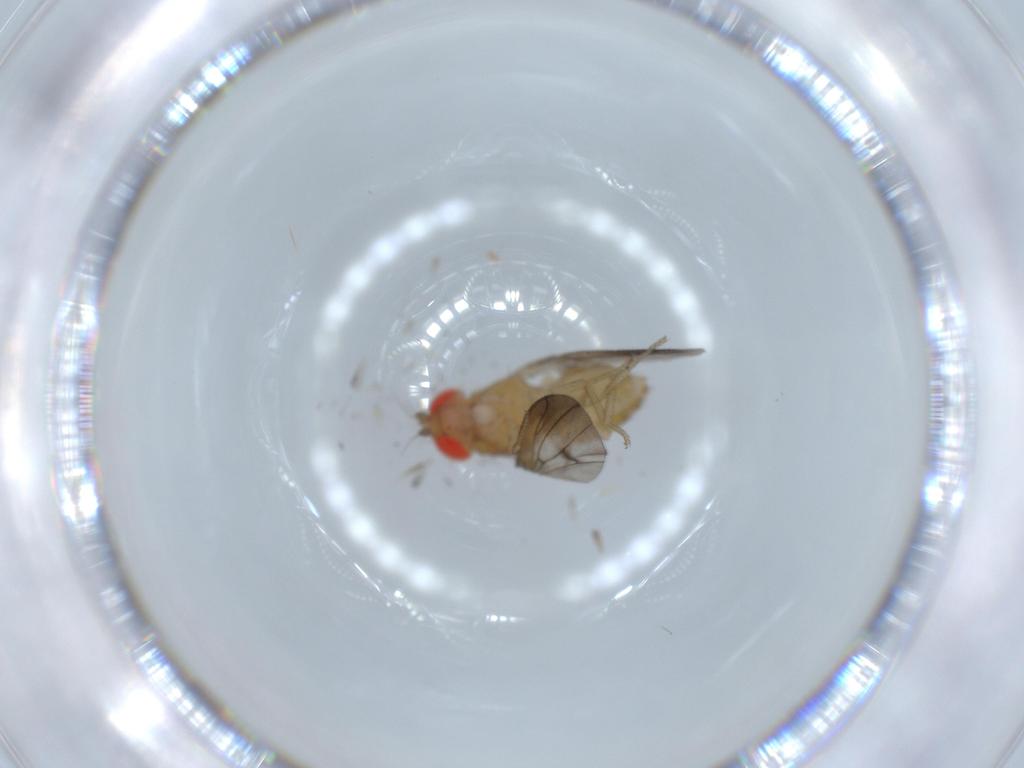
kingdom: Animalia
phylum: Arthropoda
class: Insecta
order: Diptera
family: Drosophilidae
